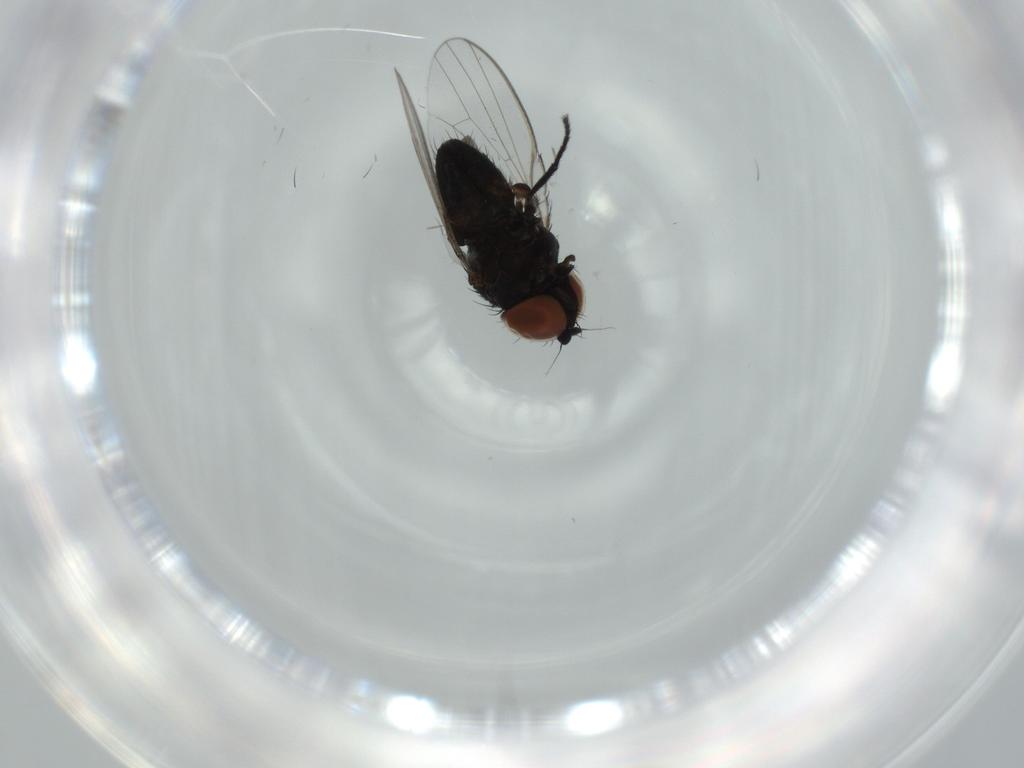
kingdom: Animalia
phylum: Arthropoda
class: Insecta
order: Diptera
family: Milichiidae
